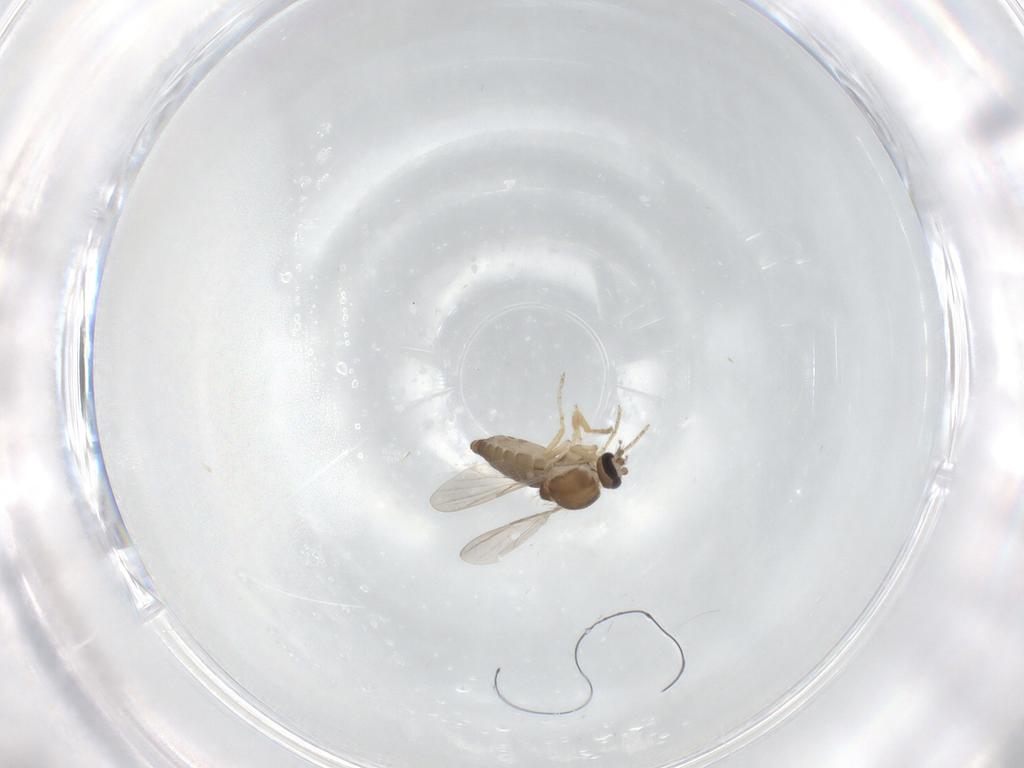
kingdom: Animalia
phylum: Arthropoda
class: Insecta
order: Diptera
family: Ceratopogonidae
